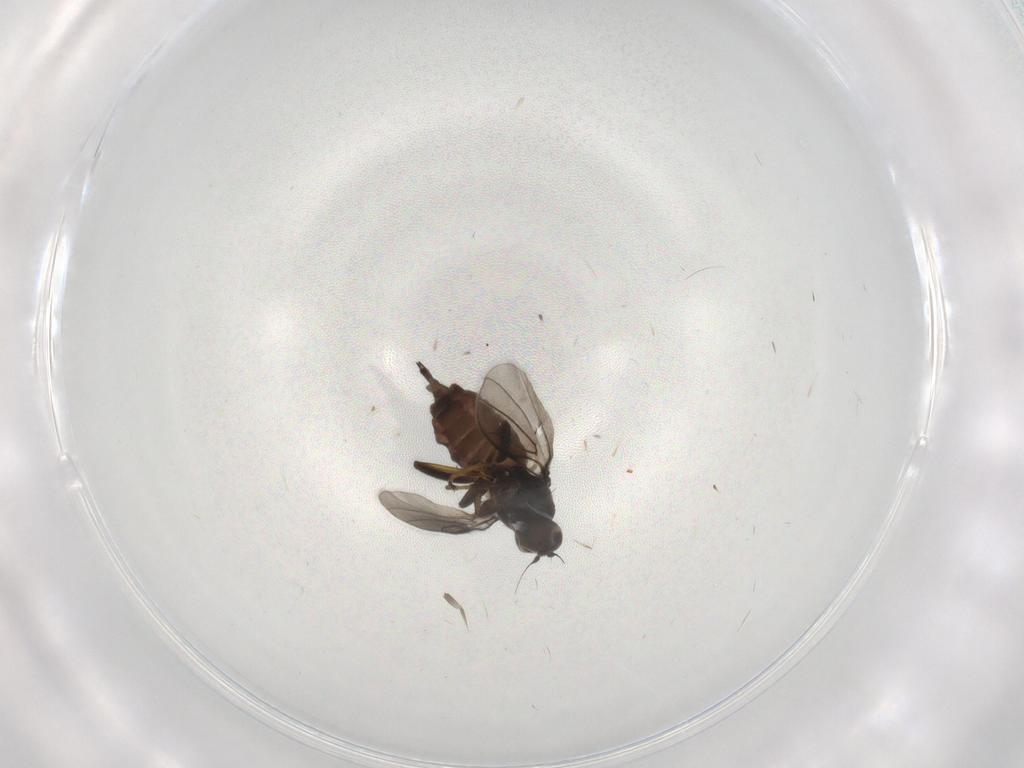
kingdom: Animalia
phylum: Arthropoda
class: Insecta
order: Diptera
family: Hybotidae
